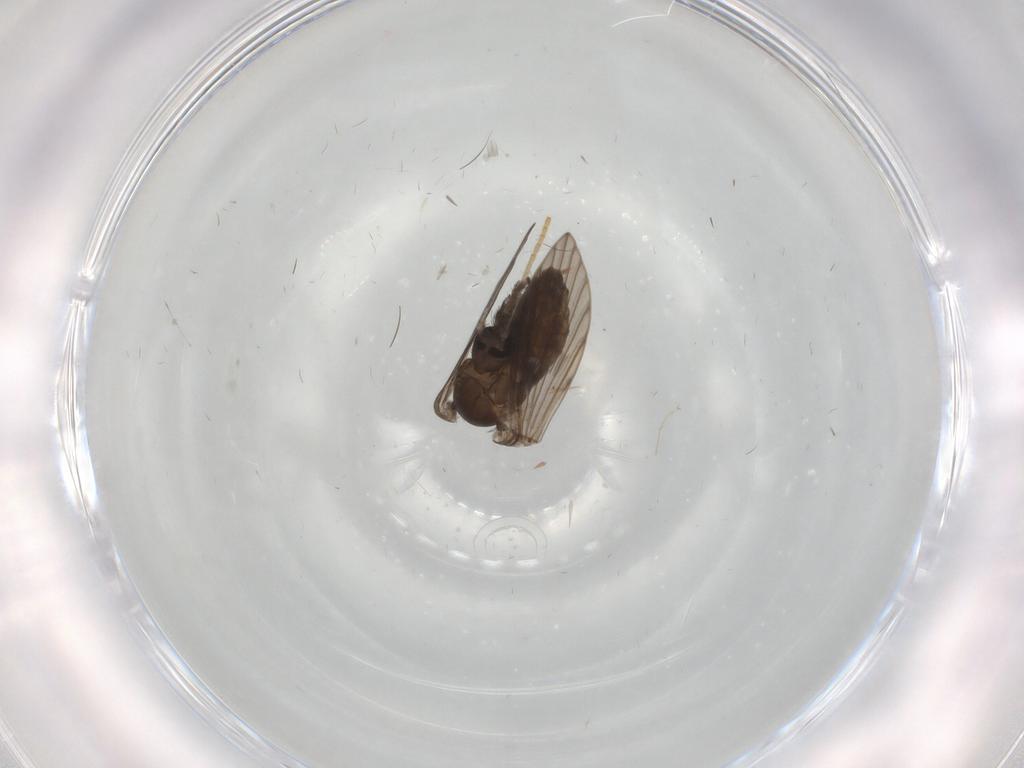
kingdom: Animalia
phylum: Arthropoda
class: Insecta
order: Diptera
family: Psychodidae
